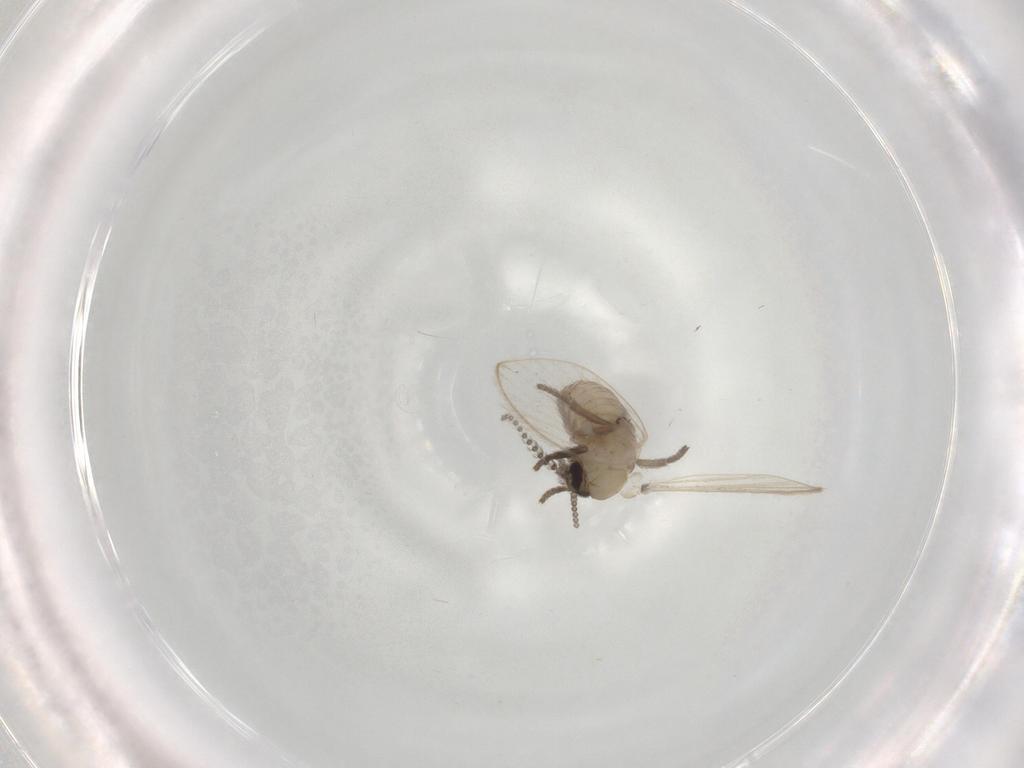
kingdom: Animalia
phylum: Arthropoda
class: Insecta
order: Diptera
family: Psychodidae
